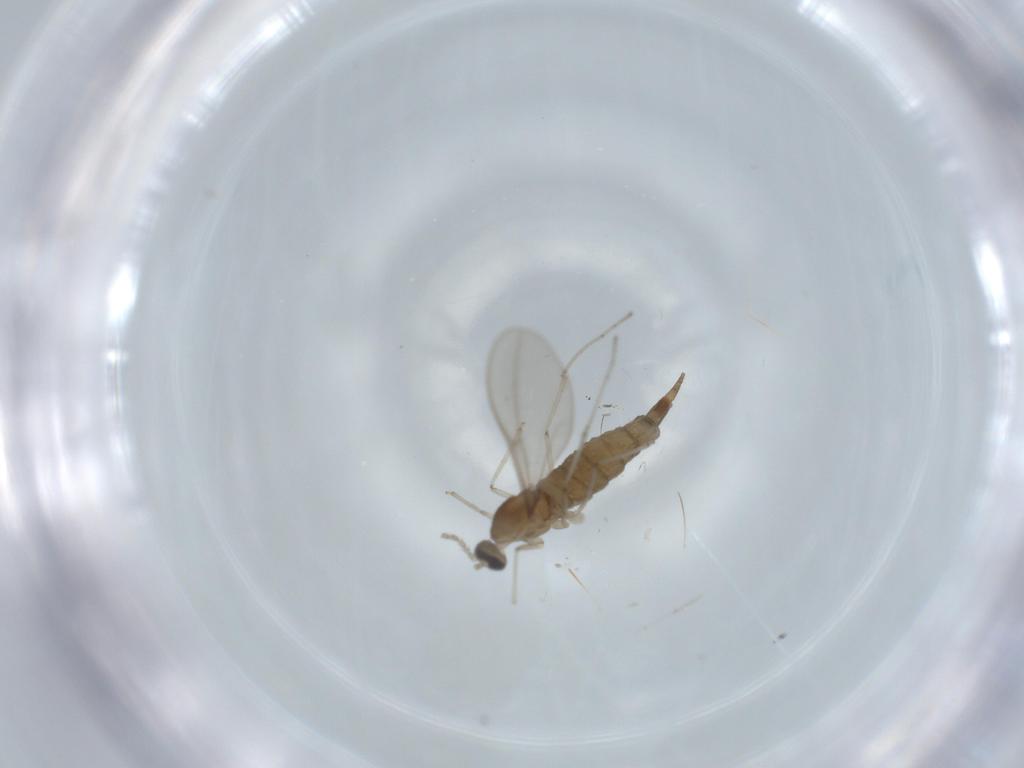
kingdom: Animalia
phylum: Arthropoda
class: Insecta
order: Diptera
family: Cecidomyiidae
